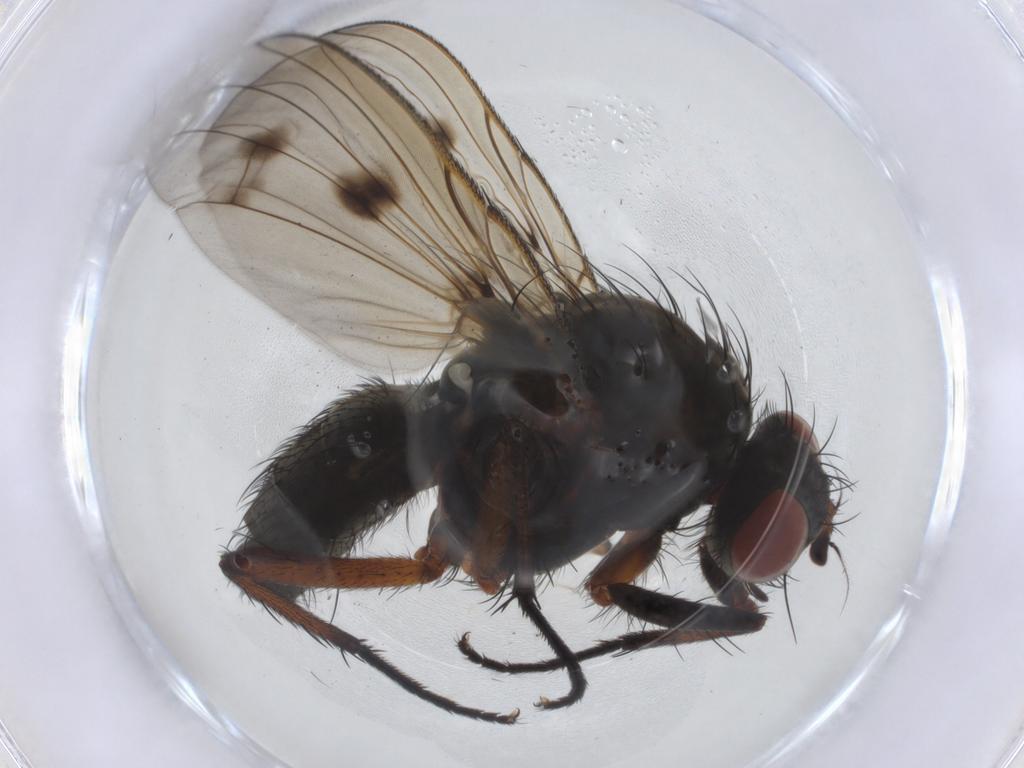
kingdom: Animalia
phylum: Arthropoda
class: Insecta
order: Diptera
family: Anthomyiidae
